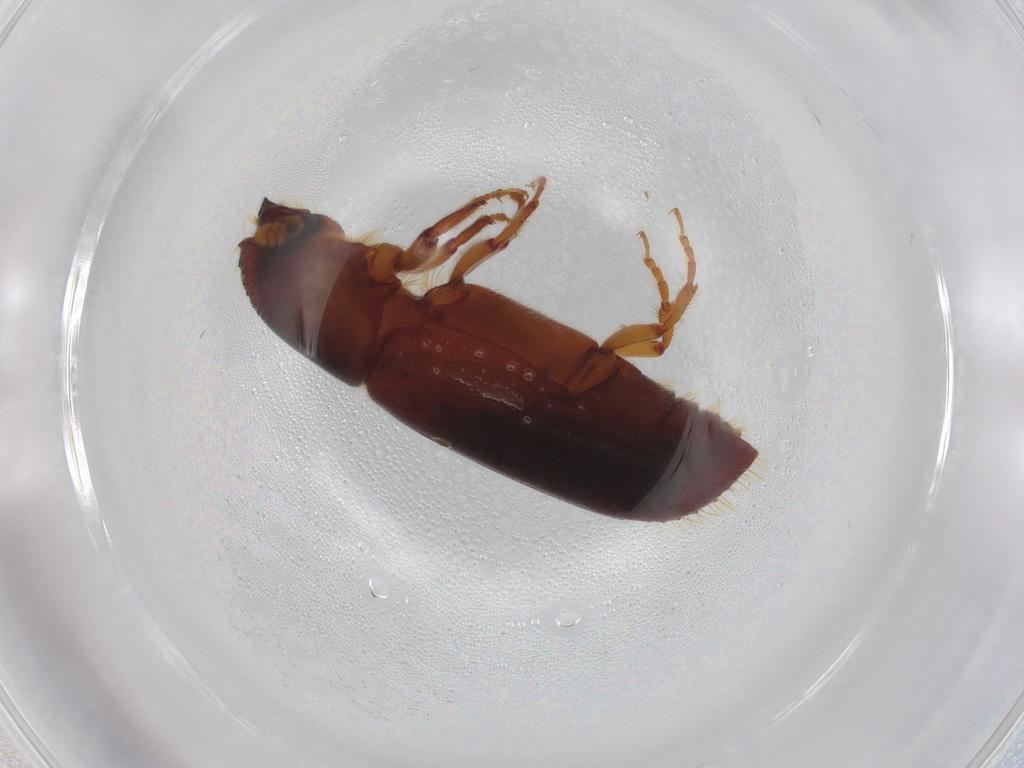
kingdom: Animalia
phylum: Arthropoda
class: Insecta
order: Coleoptera
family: Curculionidae
